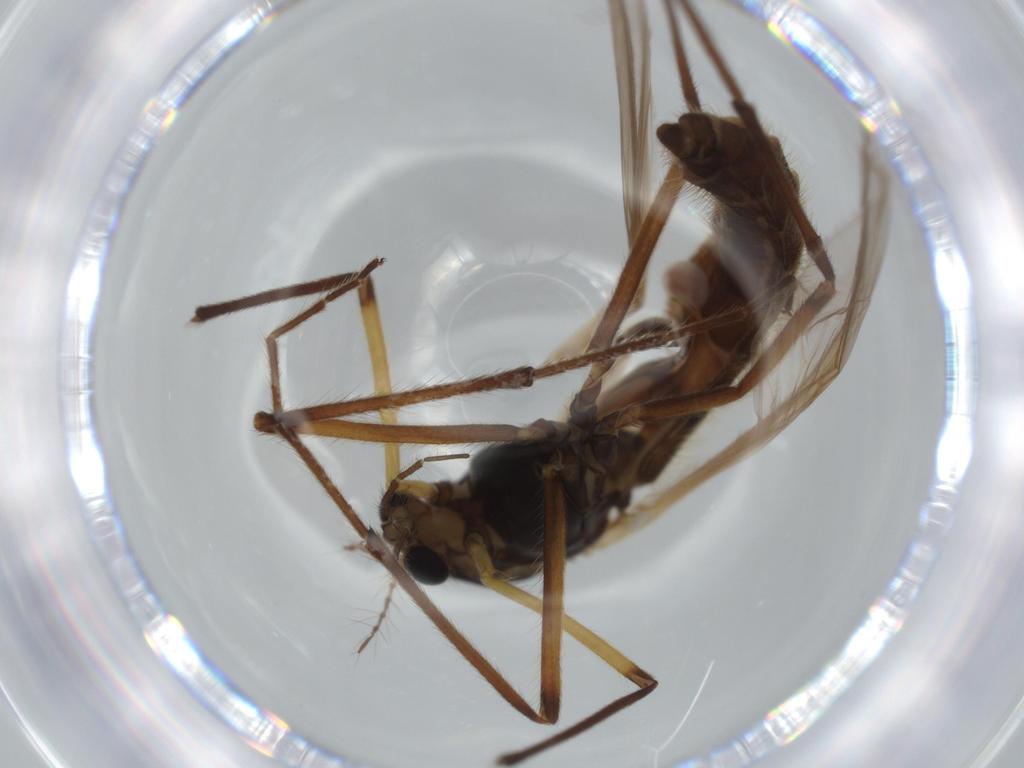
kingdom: Animalia
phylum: Arthropoda
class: Insecta
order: Diptera
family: Chironomidae
